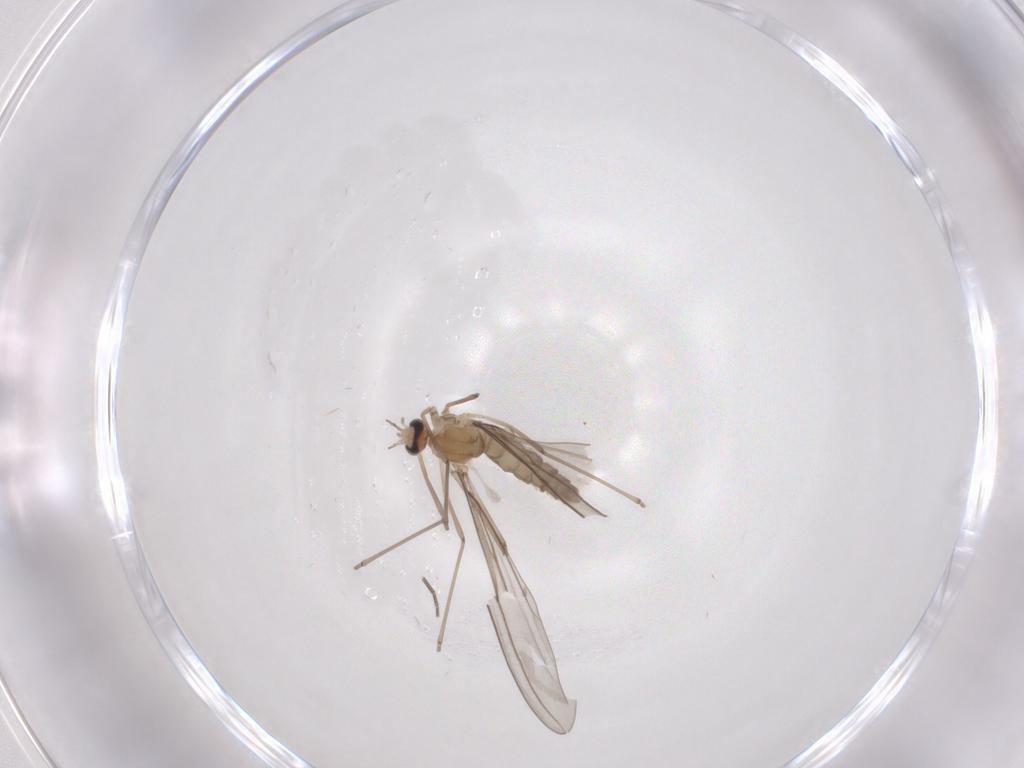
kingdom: Animalia
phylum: Arthropoda
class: Insecta
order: Diptera
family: Phoridae
